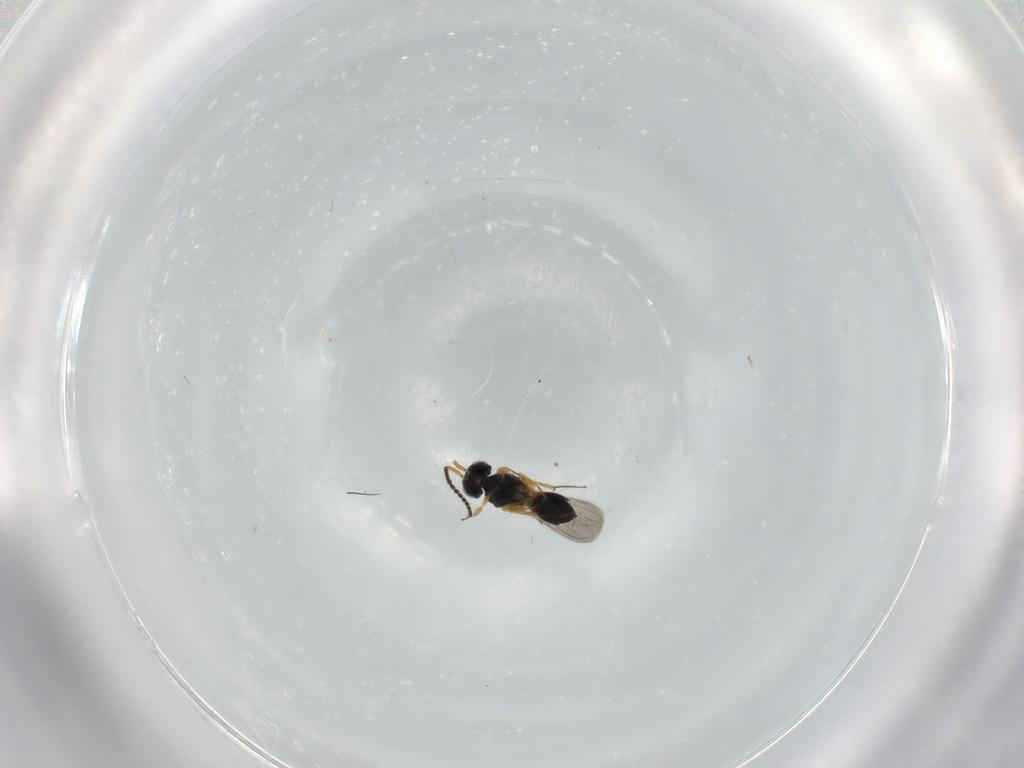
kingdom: Animalia
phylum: Arthropoda
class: Insecta
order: Hymenoptera
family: Scelionidae
